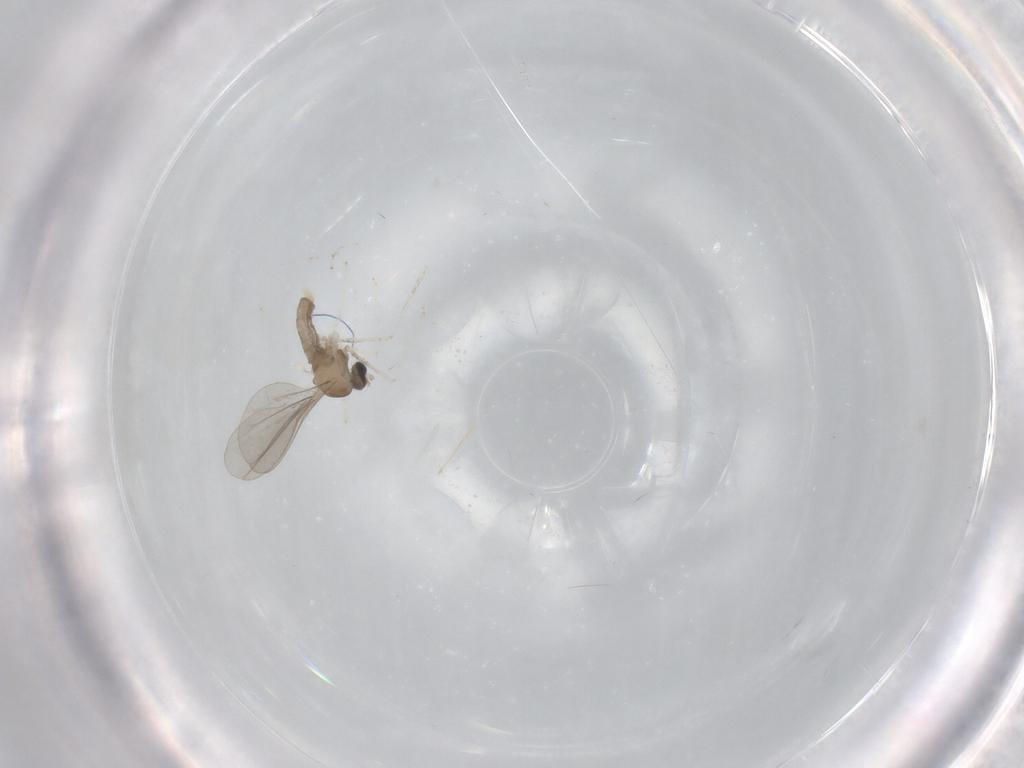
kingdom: Animalia
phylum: Arthropoda
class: Insecta
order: Diptera
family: Cecidomyiidae
